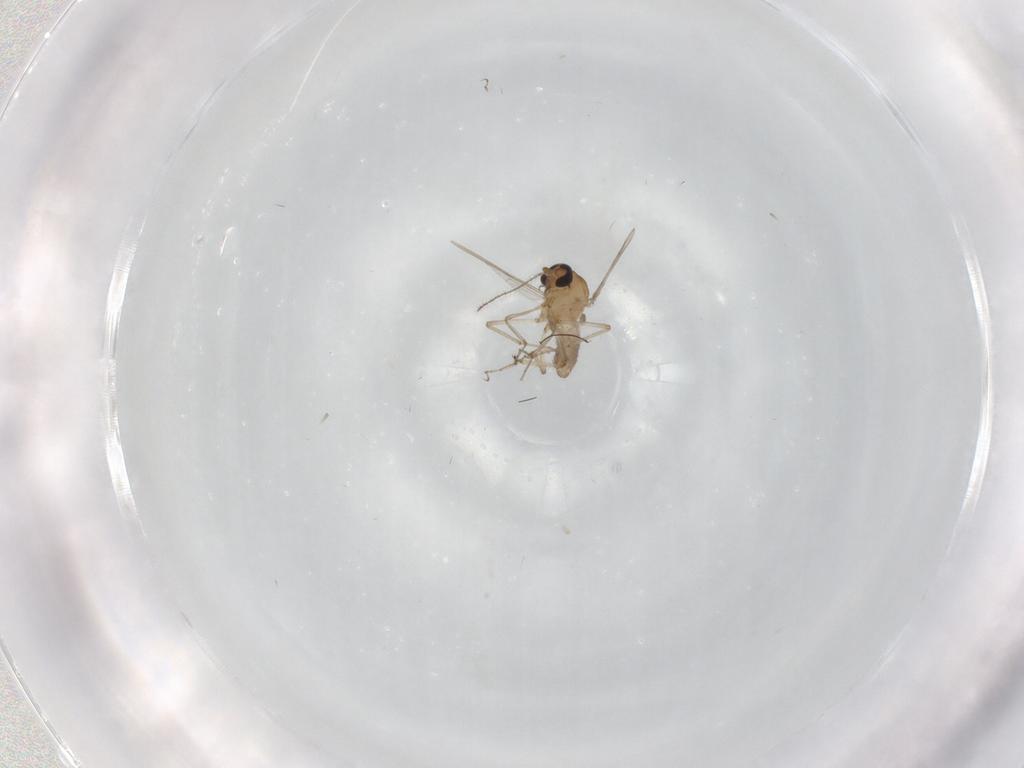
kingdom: Animalia
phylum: Arthropoda
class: Insecta
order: Diptera
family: Ceratopogonidae
